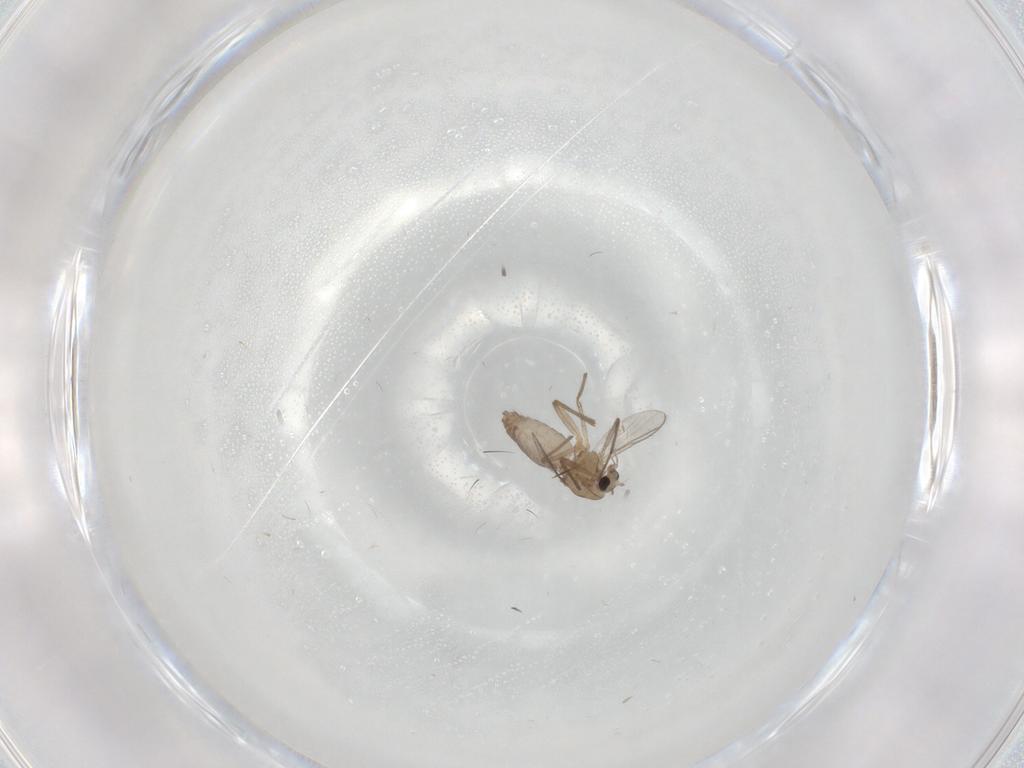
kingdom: Animalia
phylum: Arthropoda
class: Insecta
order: Diptera
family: Chironomidae
